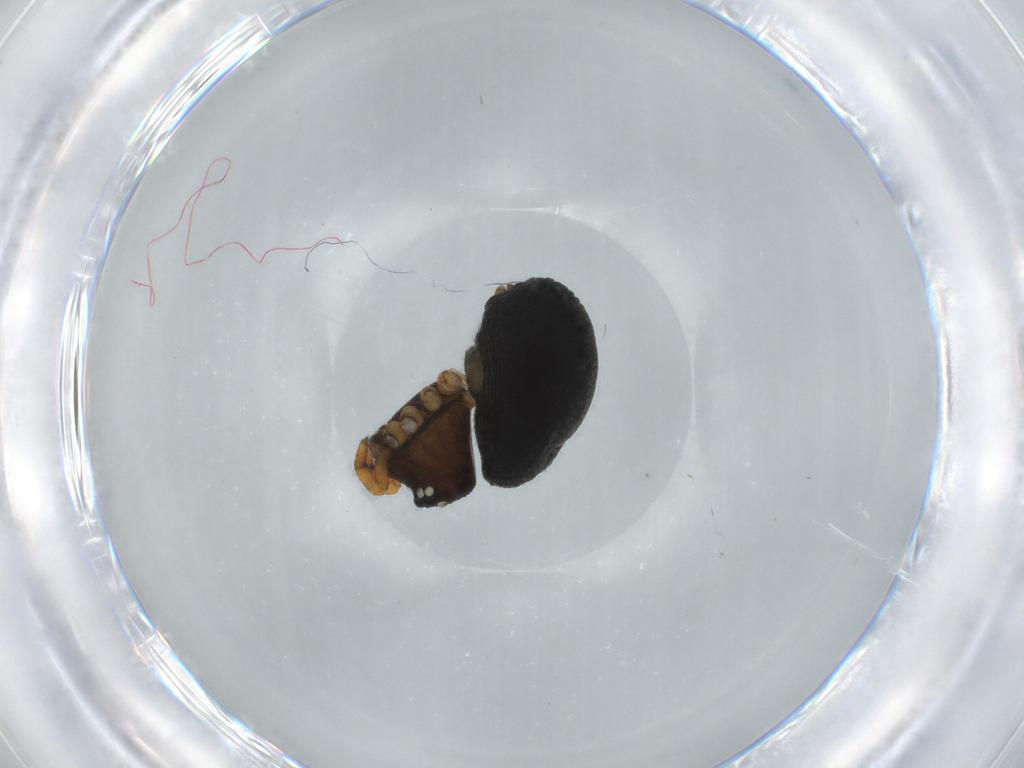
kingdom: Animalia
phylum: Arthropoda
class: Arachnida
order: Araneae
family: Theridiidae
